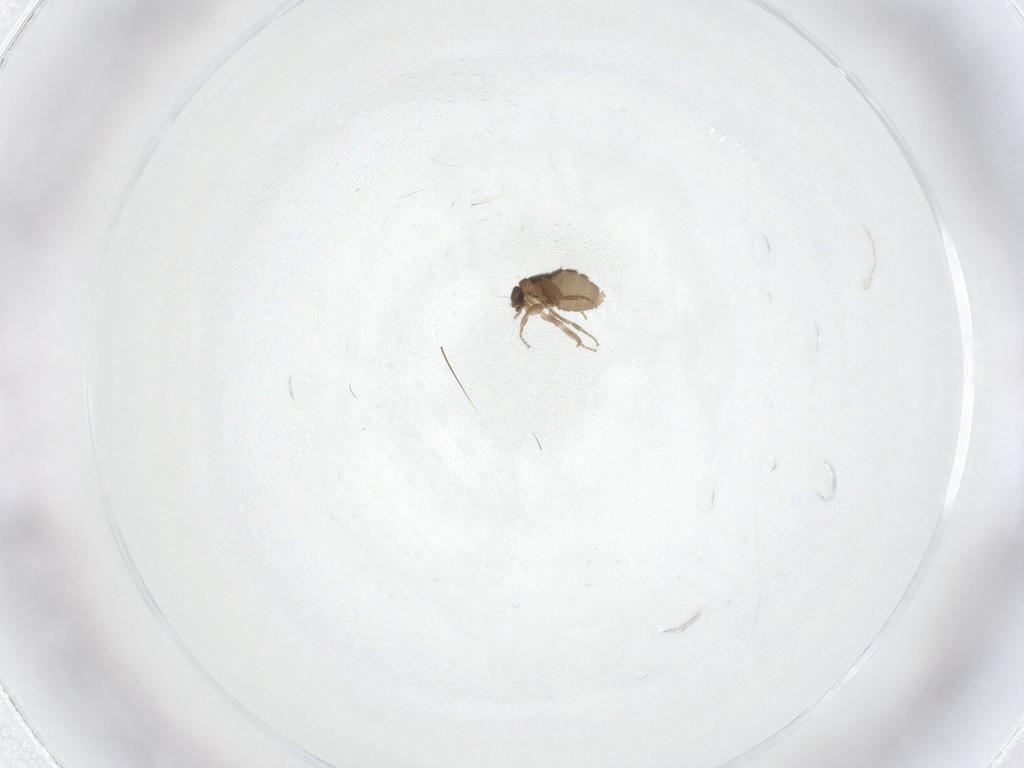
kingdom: Animalia
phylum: Arthropoda
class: Insecta
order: Diptera
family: Phoridae
